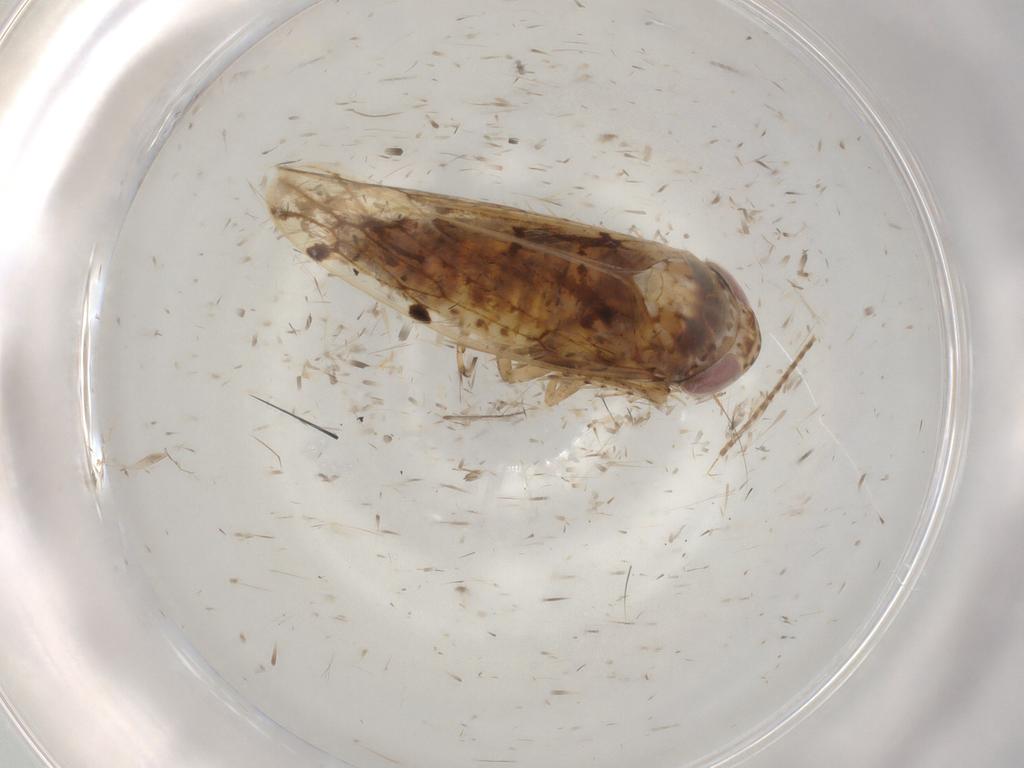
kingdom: Animalia
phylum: Arthropoda
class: Insecta
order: Hemiptera
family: Cicadellidae
